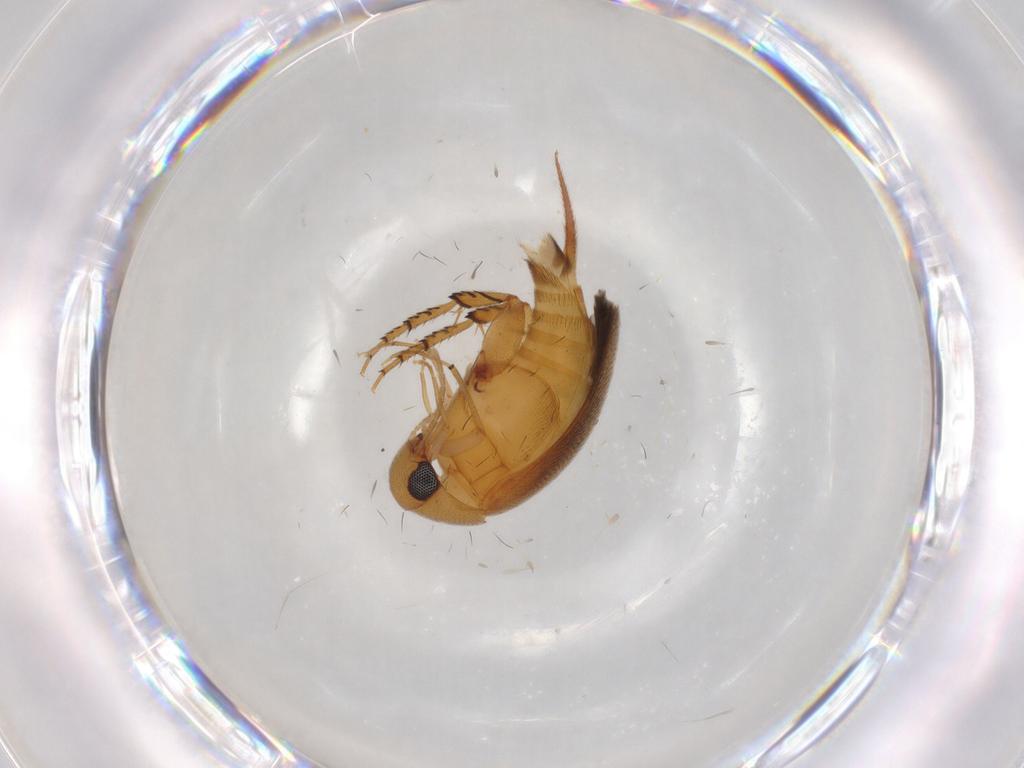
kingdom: Animalia
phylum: Arthropoda
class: Insecta
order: Coleoptera
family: Mordellidae
